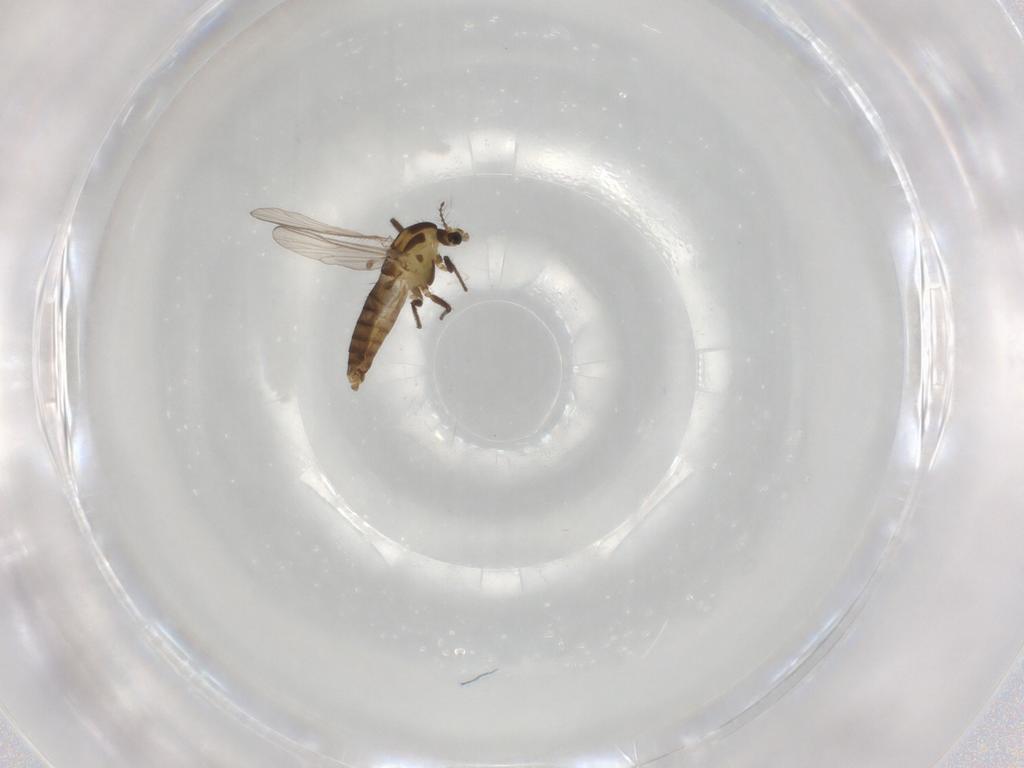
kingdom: Animalia
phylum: Arthropoda
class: Insecta
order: Diptera
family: Chironomidae
